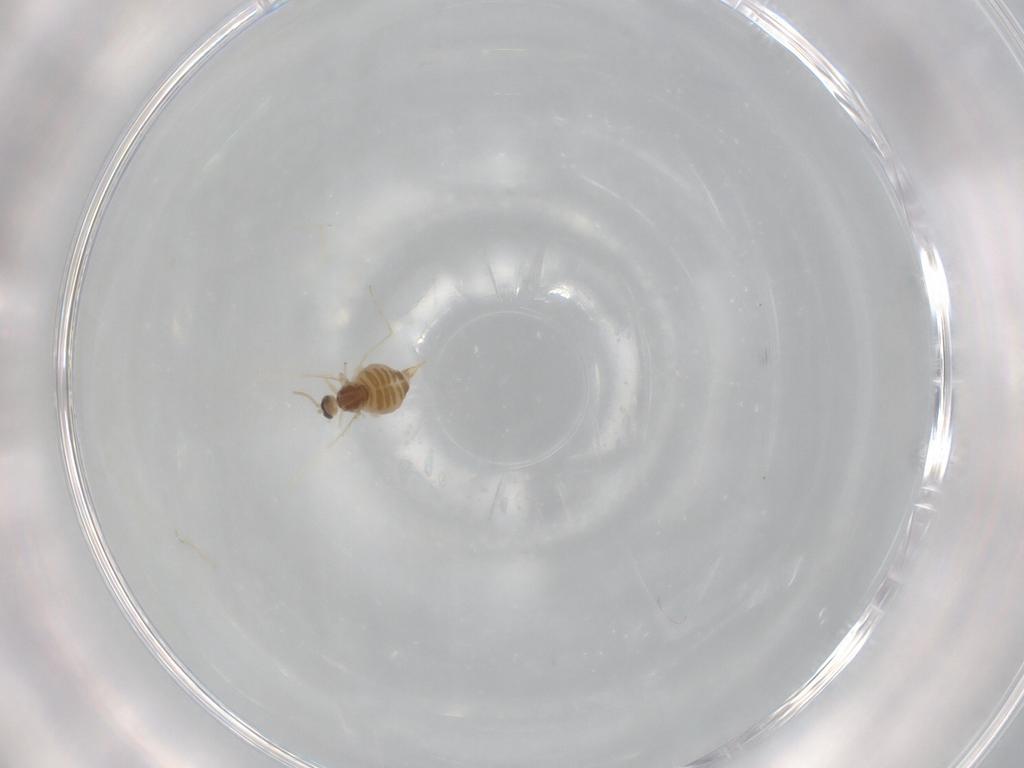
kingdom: Animalia
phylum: Arthropoda
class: Insecta
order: Diptera
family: Cecidomyiidae
